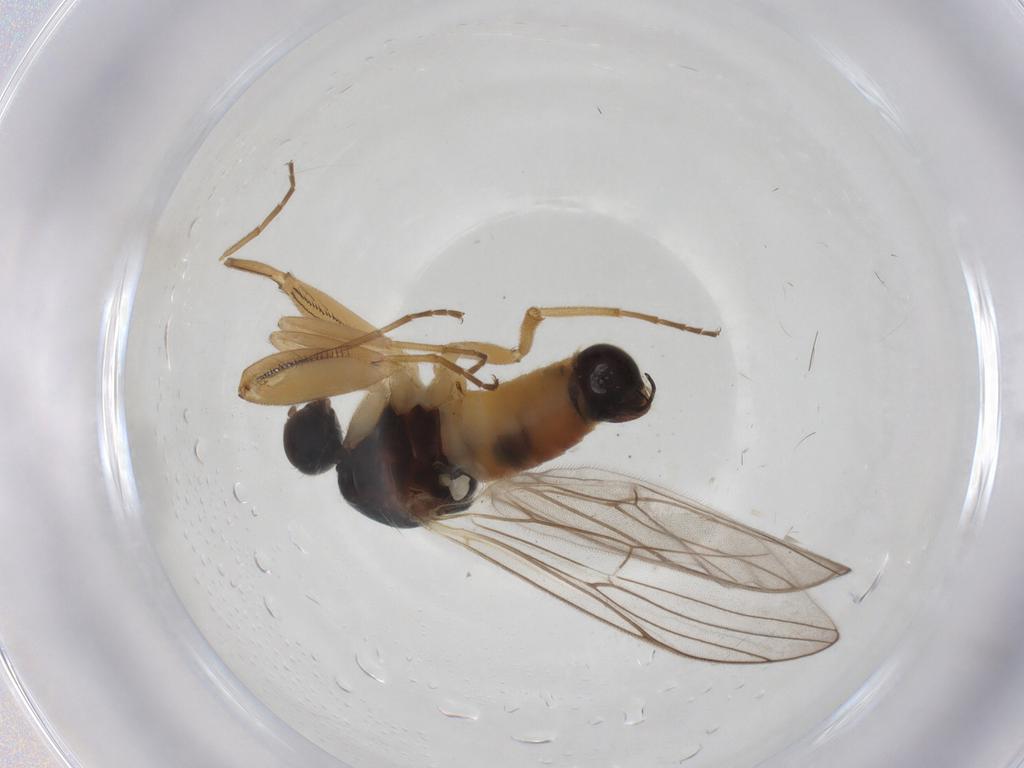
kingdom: Animalia
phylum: Arthropoda
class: Insecta
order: Diptera
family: Hybotidae
